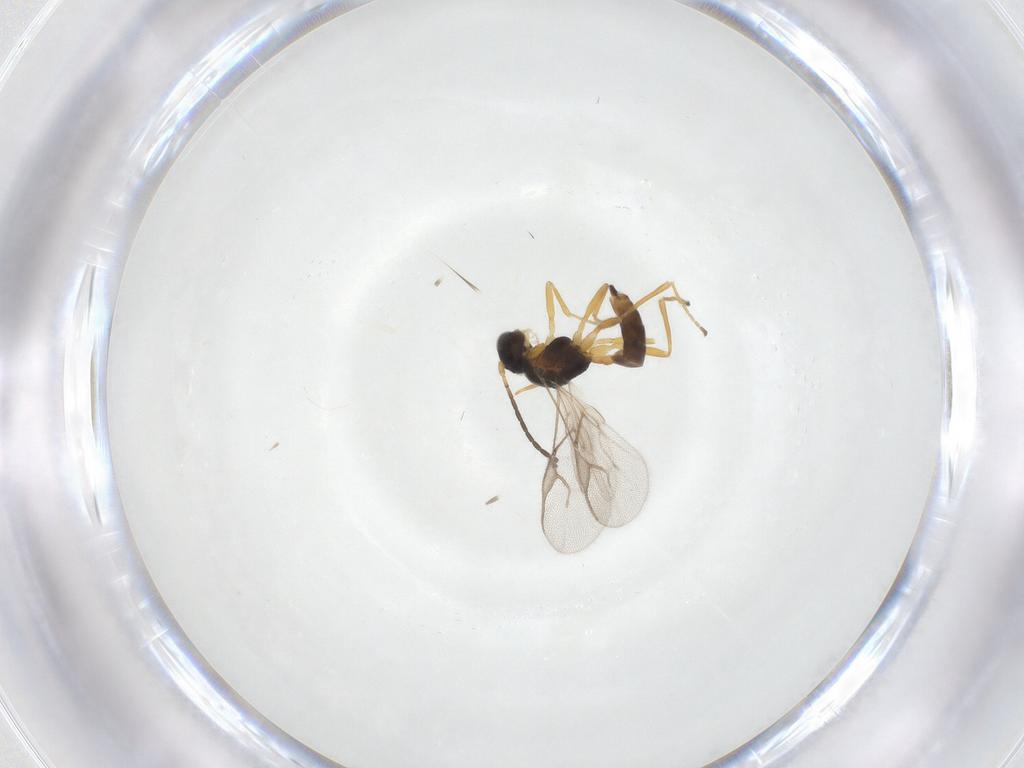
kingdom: Animalia
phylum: Arthropoda
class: Insecta
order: Hymenoptera
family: Braconidae
